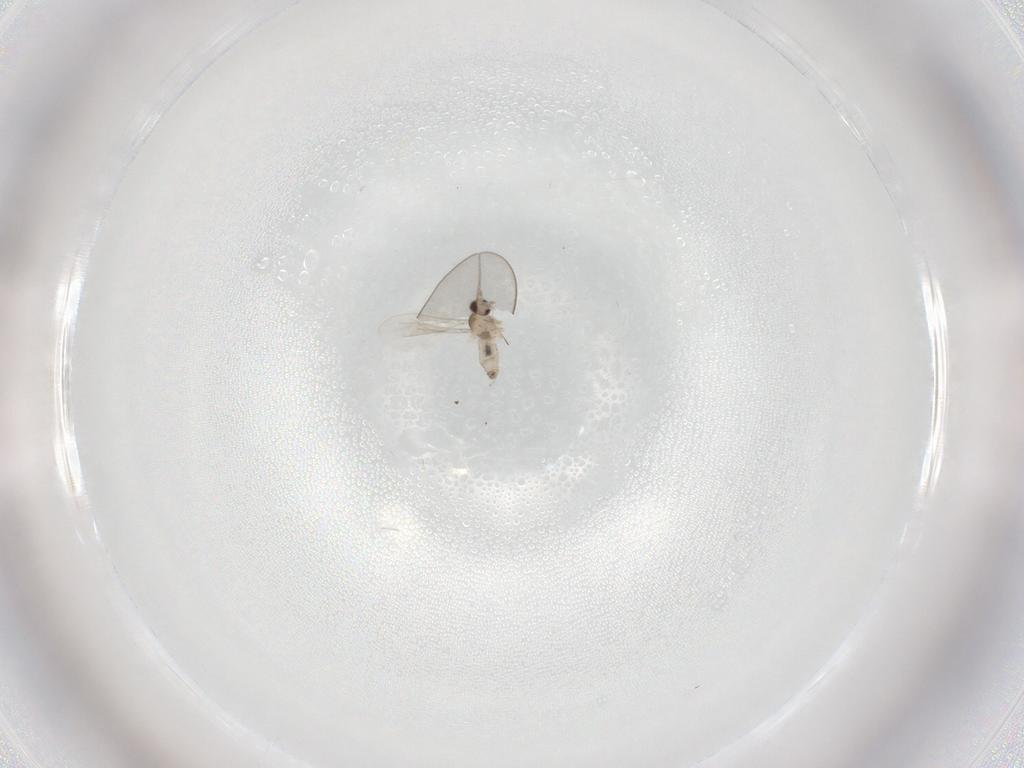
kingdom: Animalia
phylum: Arthropoda
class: Insecta
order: Diptera
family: Cecidomyiidae
